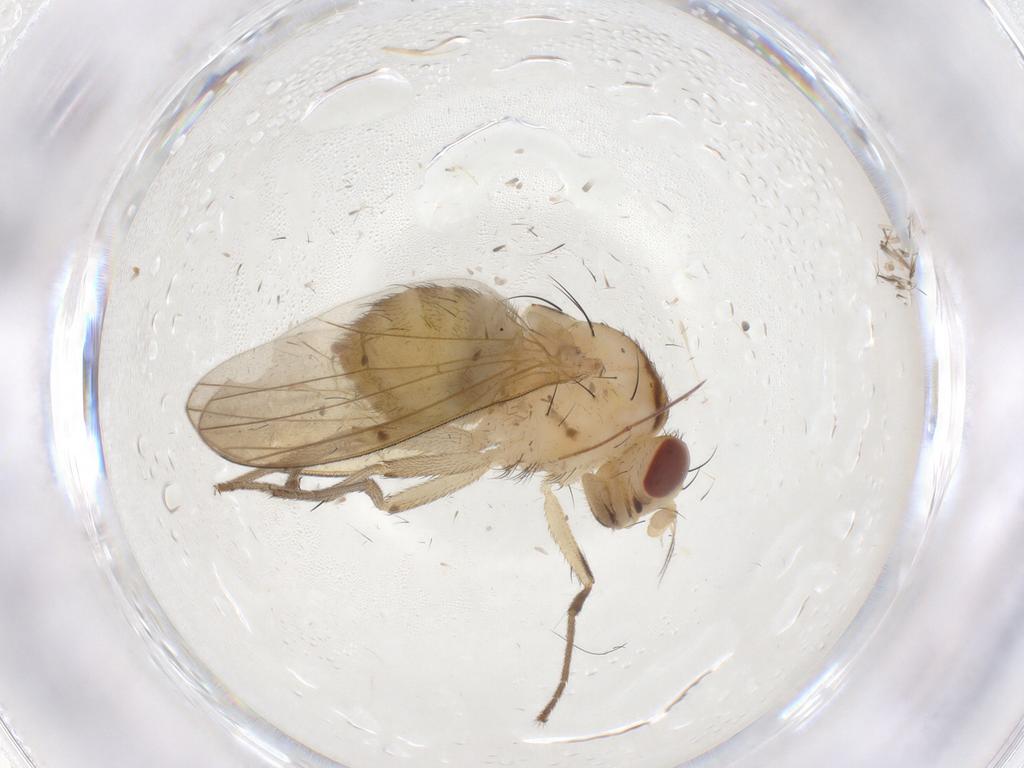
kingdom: Animalia
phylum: Arthropoda
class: Insecta
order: Diptera
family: Lauxaniidae
